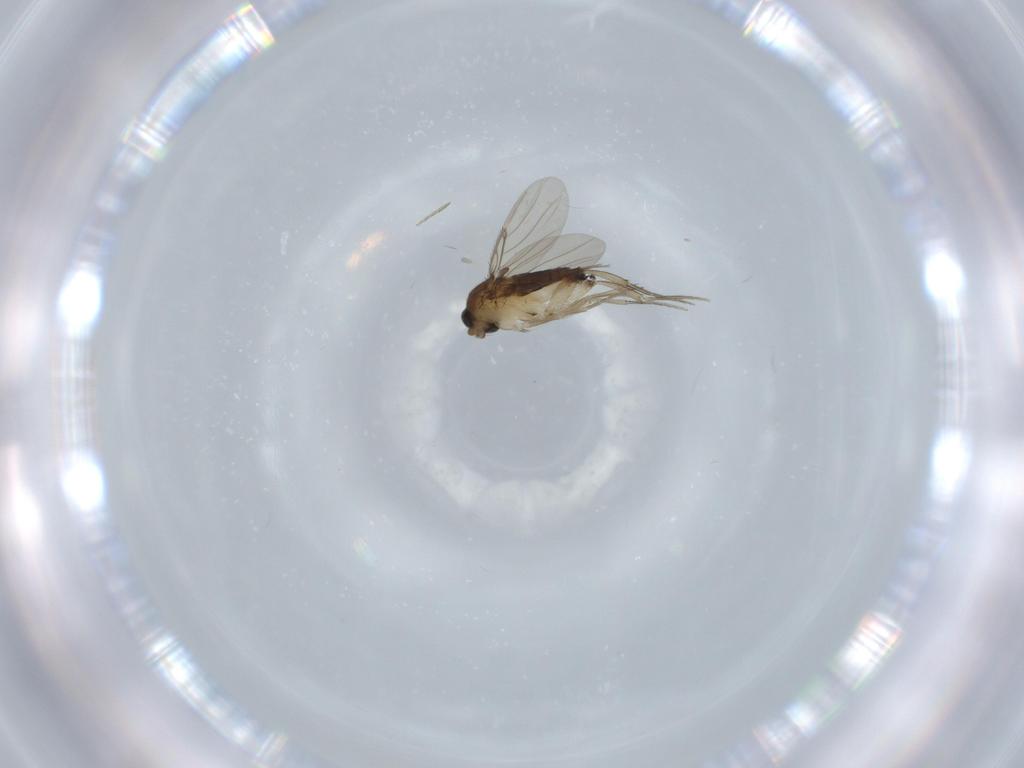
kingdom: Animalia
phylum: Arthropoda
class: Insecta
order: Diptera
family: Phoridae
